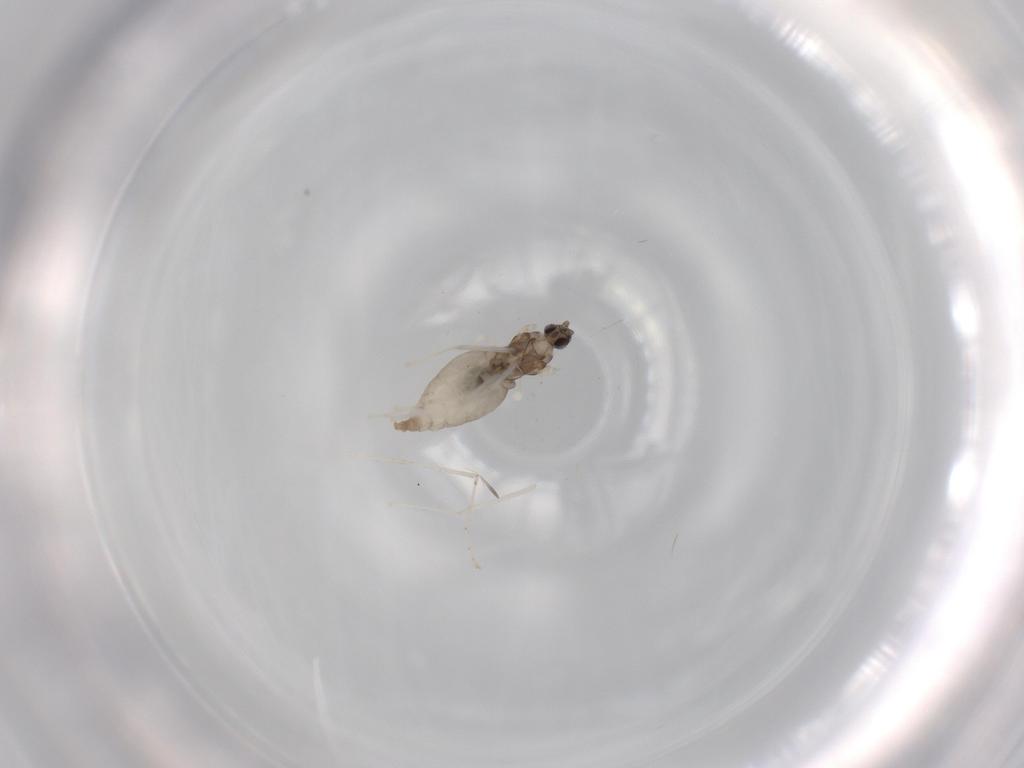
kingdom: Animalia
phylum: Arthropoda
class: Insecta
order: Diptera
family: Cecidomyiidae
